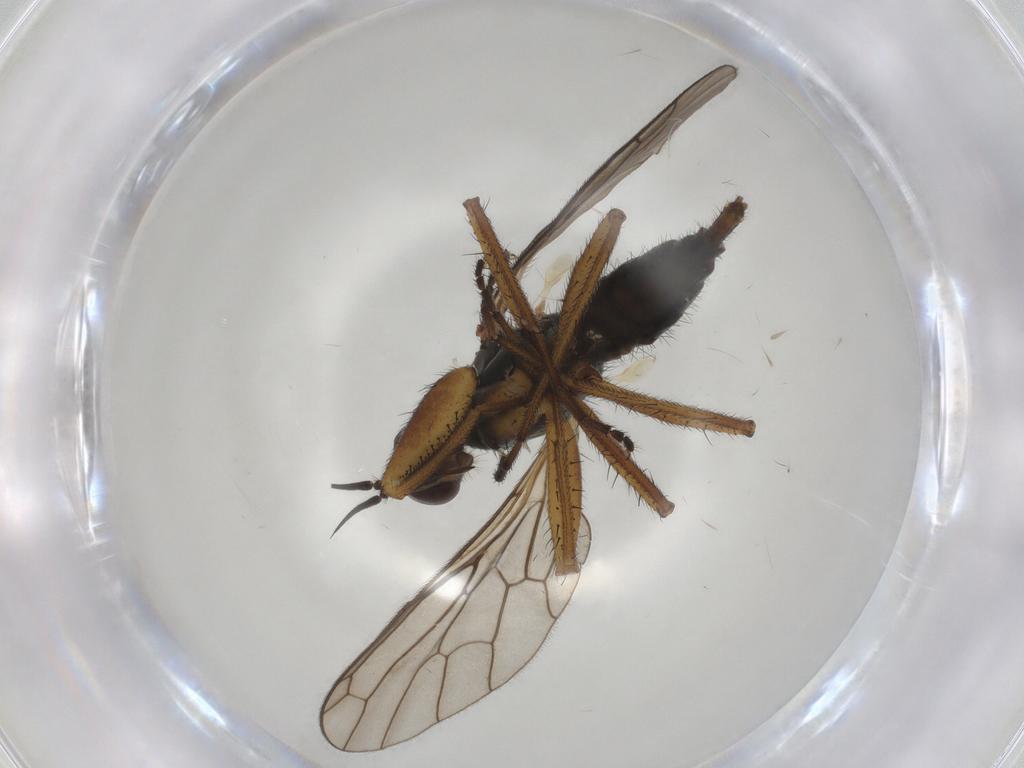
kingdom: Animalia
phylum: Arthropoda
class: Insecta
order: Diptera
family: Empididae
